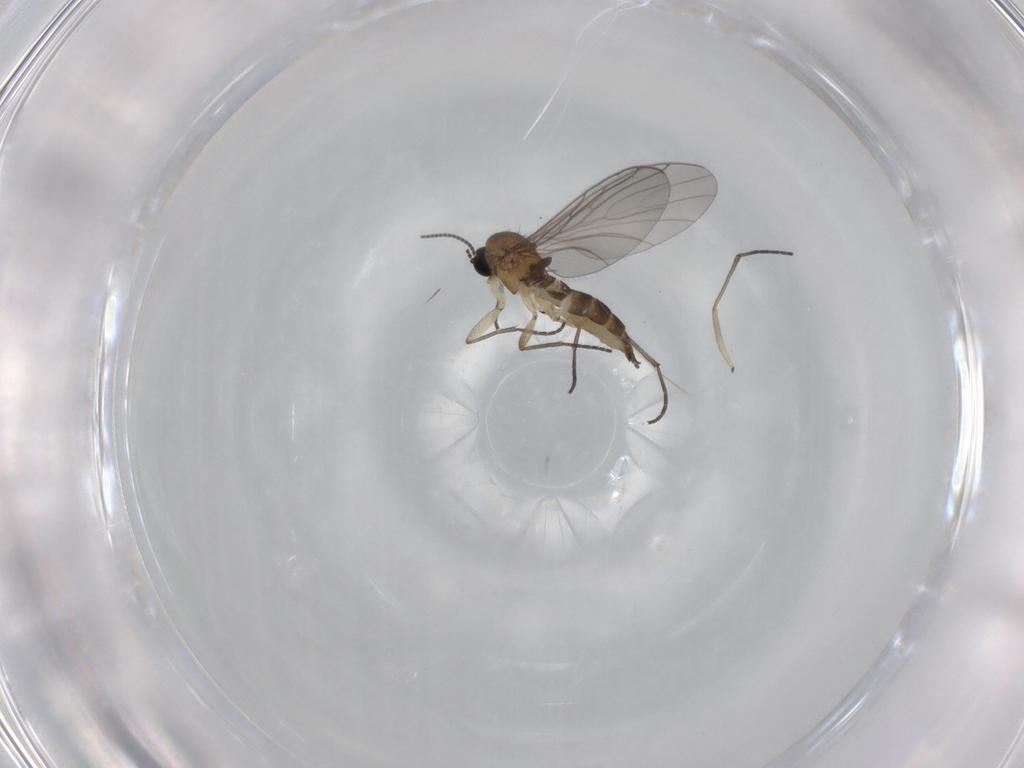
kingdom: Animalia
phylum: Arthropoda
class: Insecta
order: Diptera
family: Sciaridae
